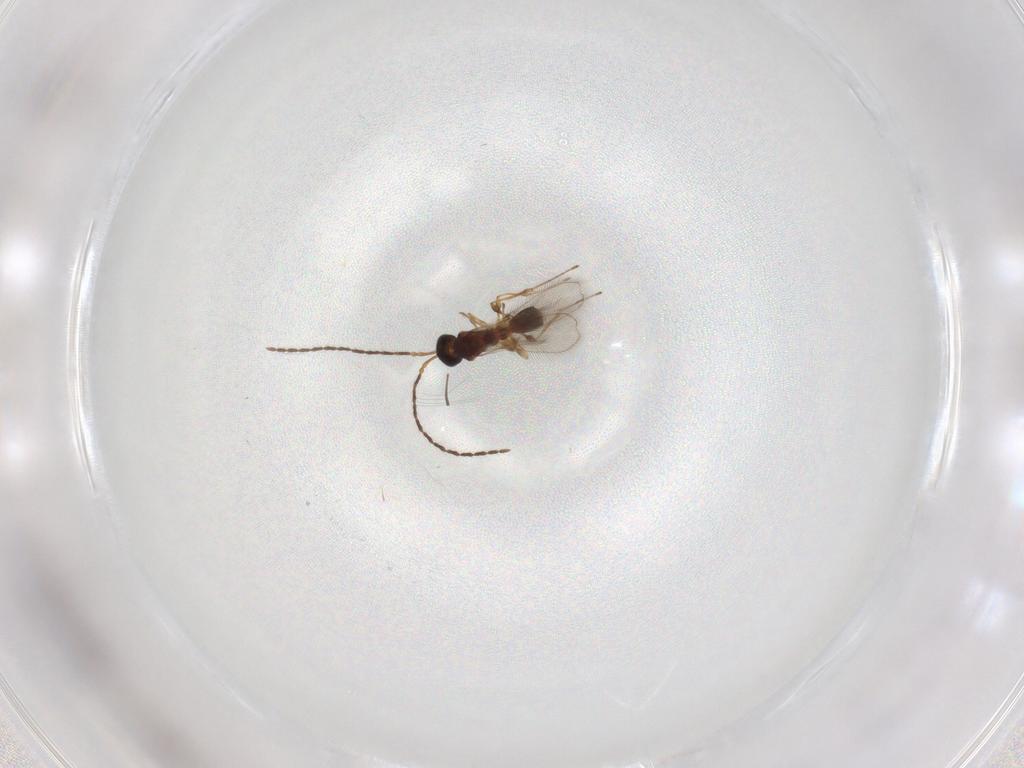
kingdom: Animalia
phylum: Arthropoda
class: Insecta
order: Hymenoptera
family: Diapriidae
